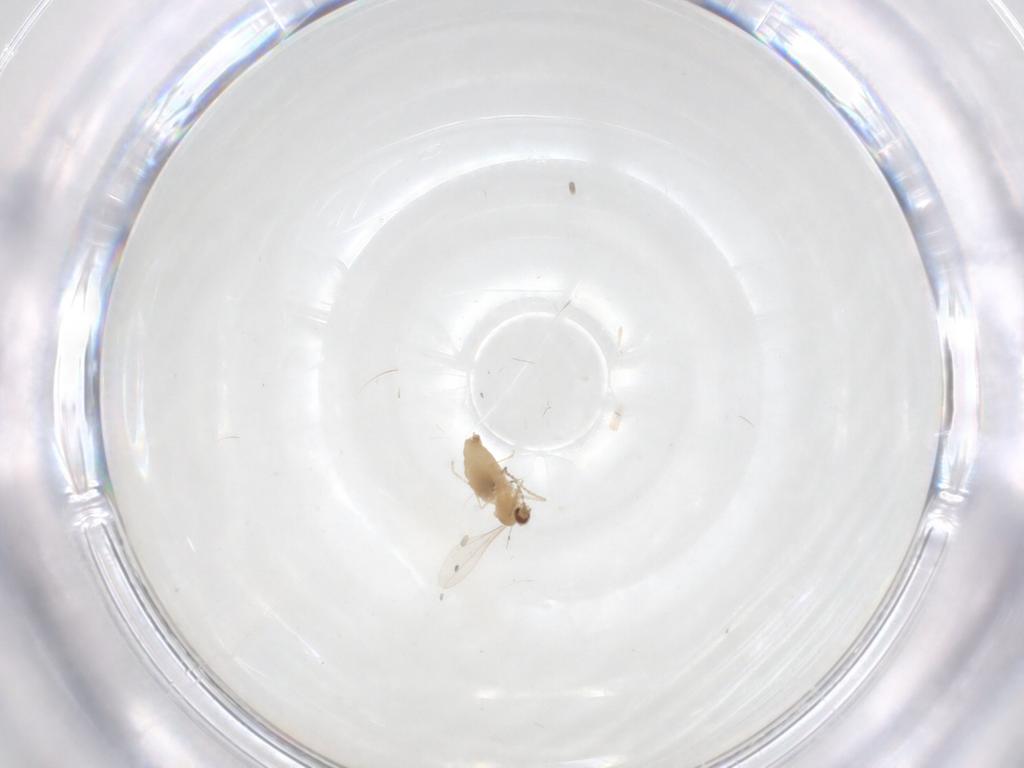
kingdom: Animalia
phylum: Arthropoda
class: Insecta
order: Diptera
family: Cecidomyiidae
